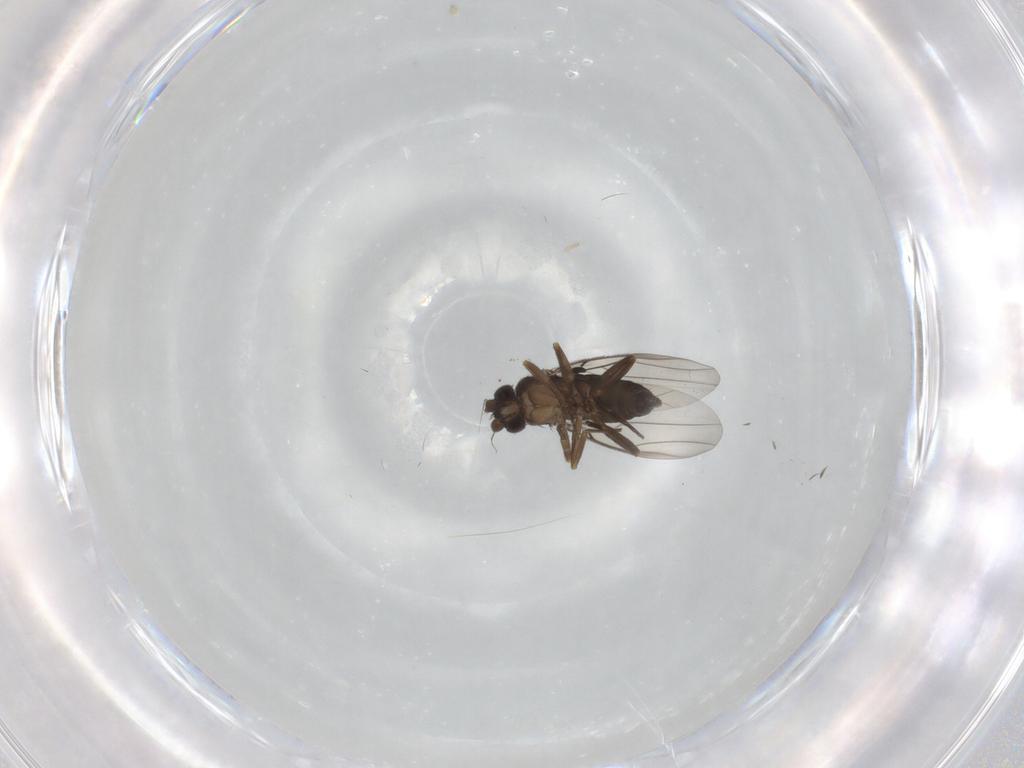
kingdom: Animalia
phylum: Arthropoda
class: Insecta
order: Diptera
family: Phoridae
